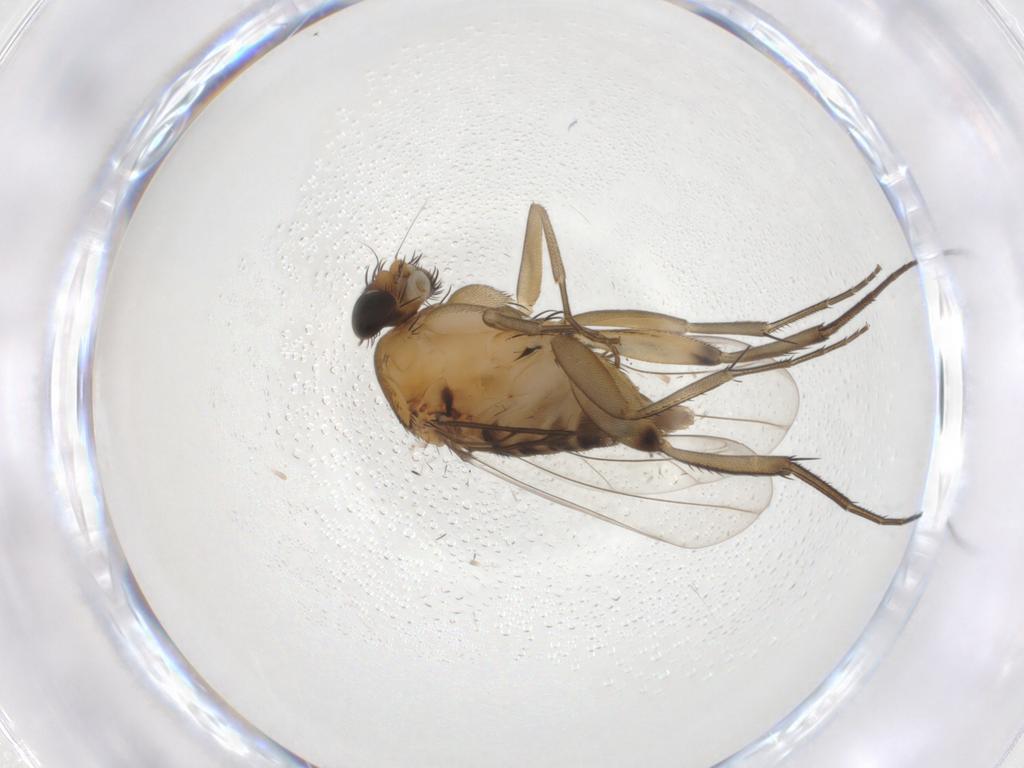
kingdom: Animalia
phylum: Arthropoda
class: Insecta
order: Diptera
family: Phoridae
